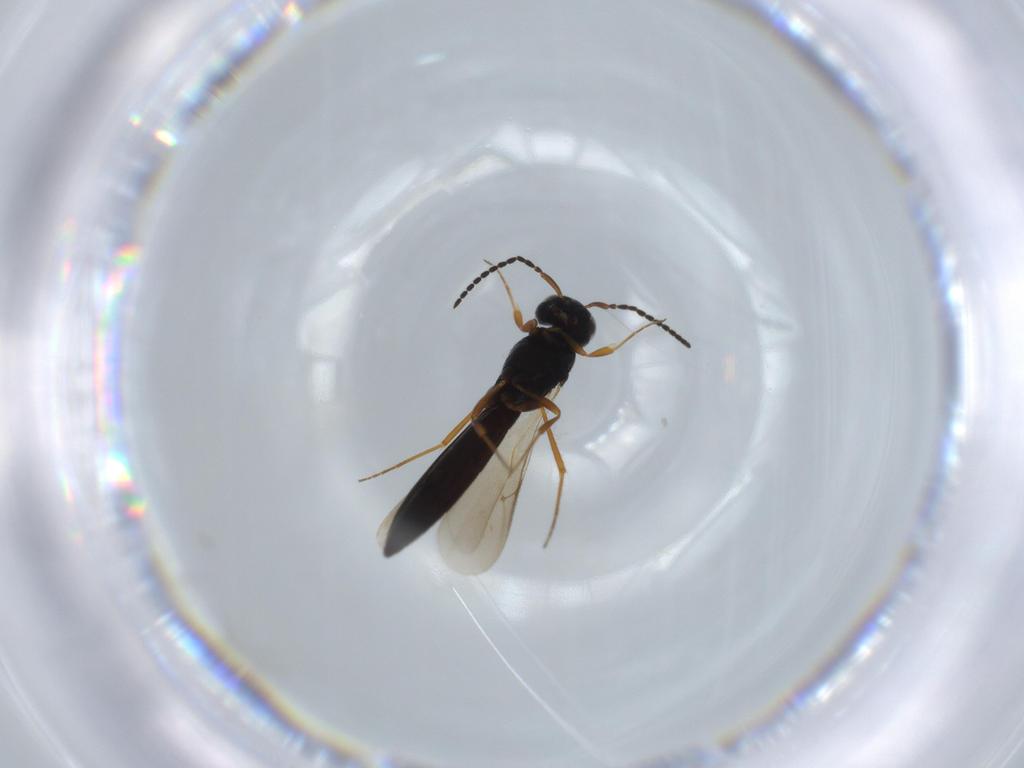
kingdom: Animalia
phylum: Arthropoda
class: Insecta
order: Hymenoptera
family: Scelionidae
